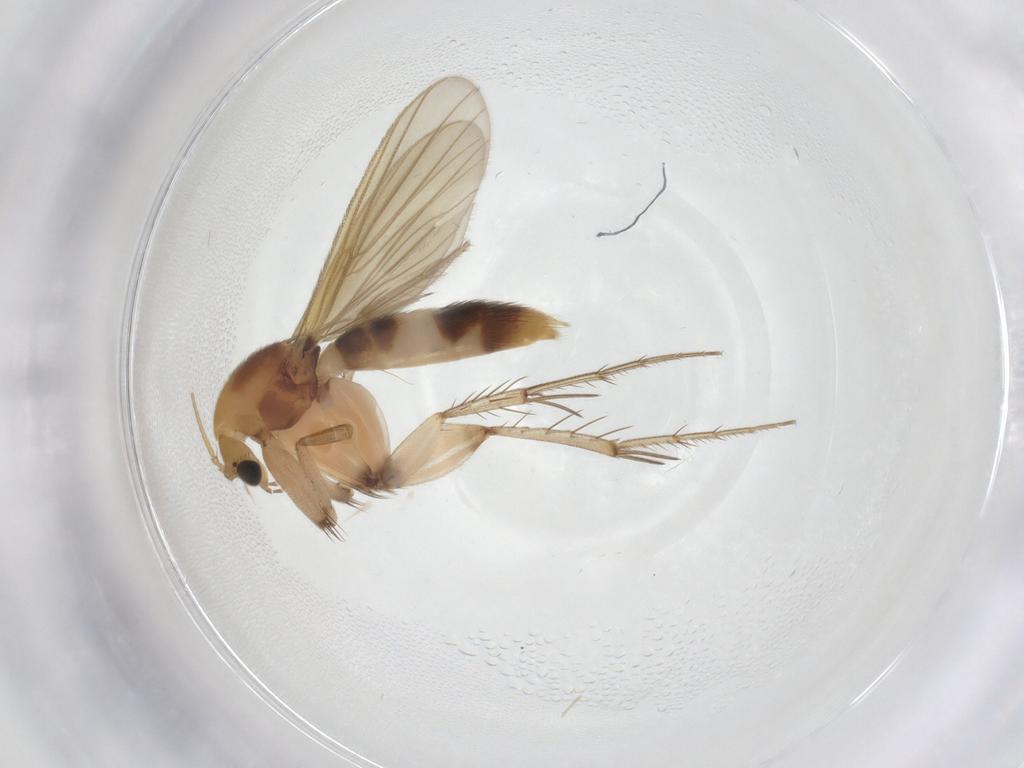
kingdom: Animalia
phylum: Arthropoda
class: Insecta
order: Diptera
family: Mycetophilidae
